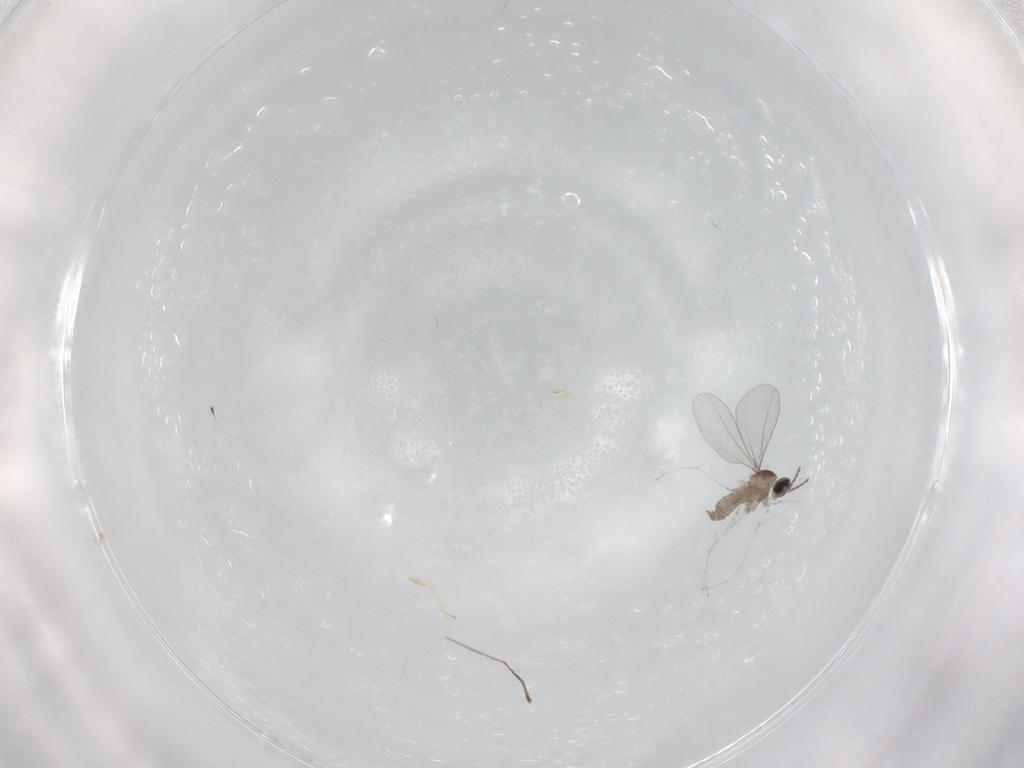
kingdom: Animalia
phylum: Arthropoda
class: Insecta
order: Diptera
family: Cecidomyiidae
